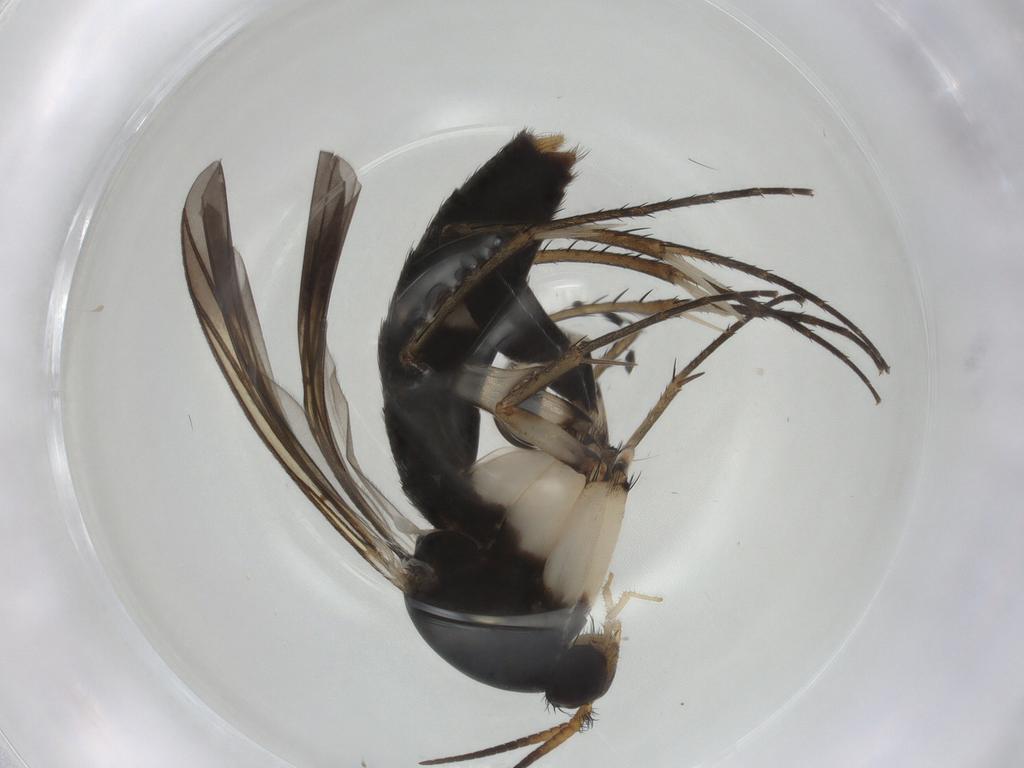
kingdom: Animalia
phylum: Arthropoda
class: Insecta
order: Diptera
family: Mycetophilidae
